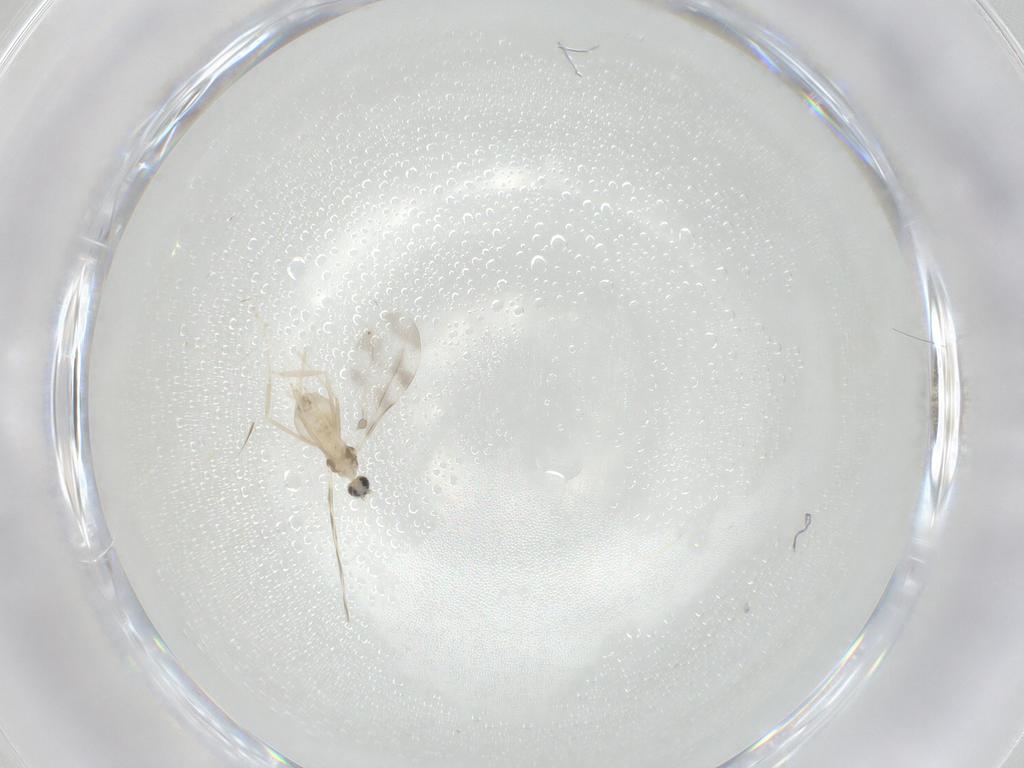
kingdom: Animalia
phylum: Arthropoda
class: Insecta
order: Diptera
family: Cecidomyiidae
